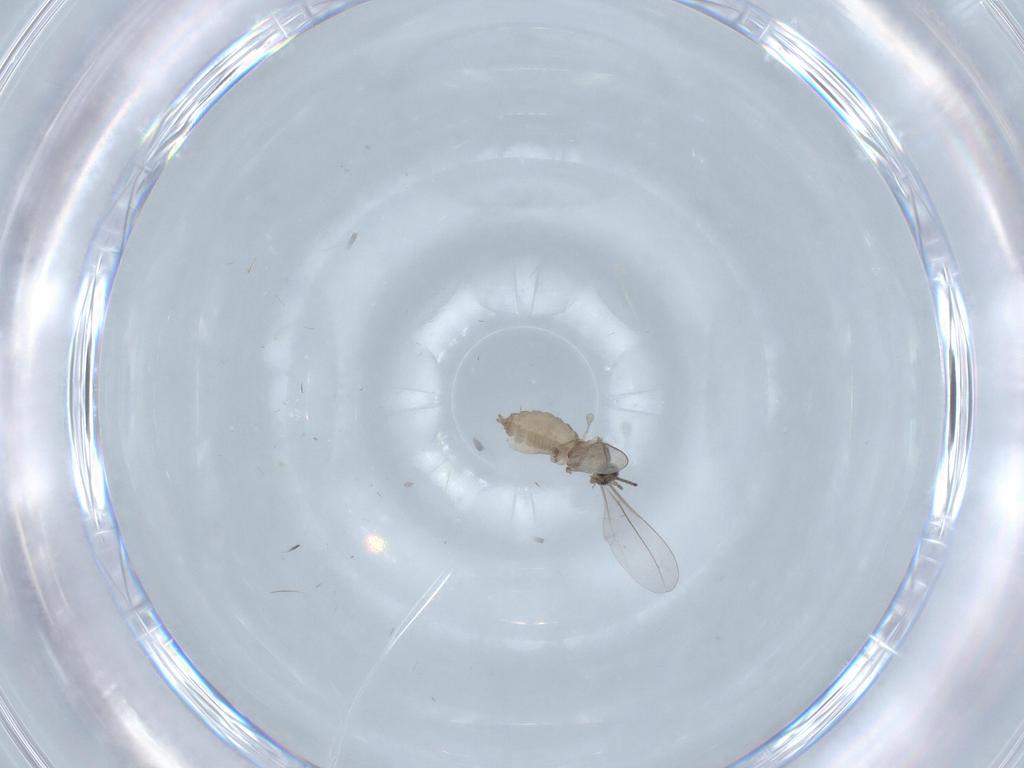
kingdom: Animalia
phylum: Arthropoda
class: Insecta
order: Diptera
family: Cecidomyiidae
